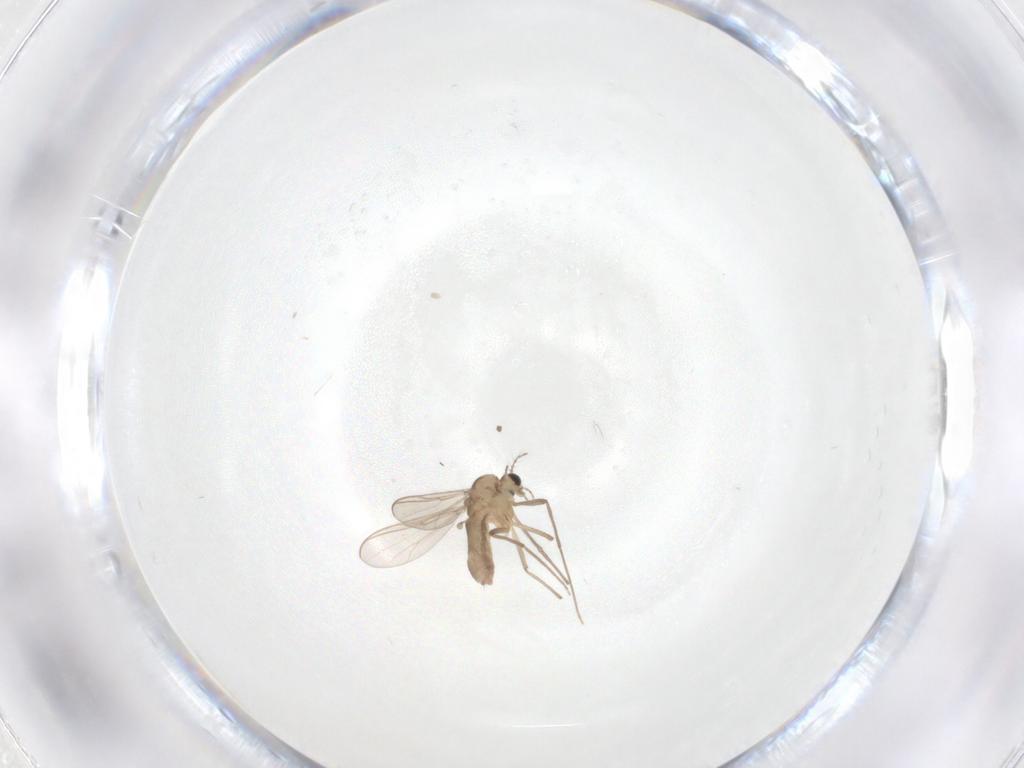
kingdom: Animalia
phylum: Arthropoda
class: Insecta
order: Diptera
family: Chironomidae
